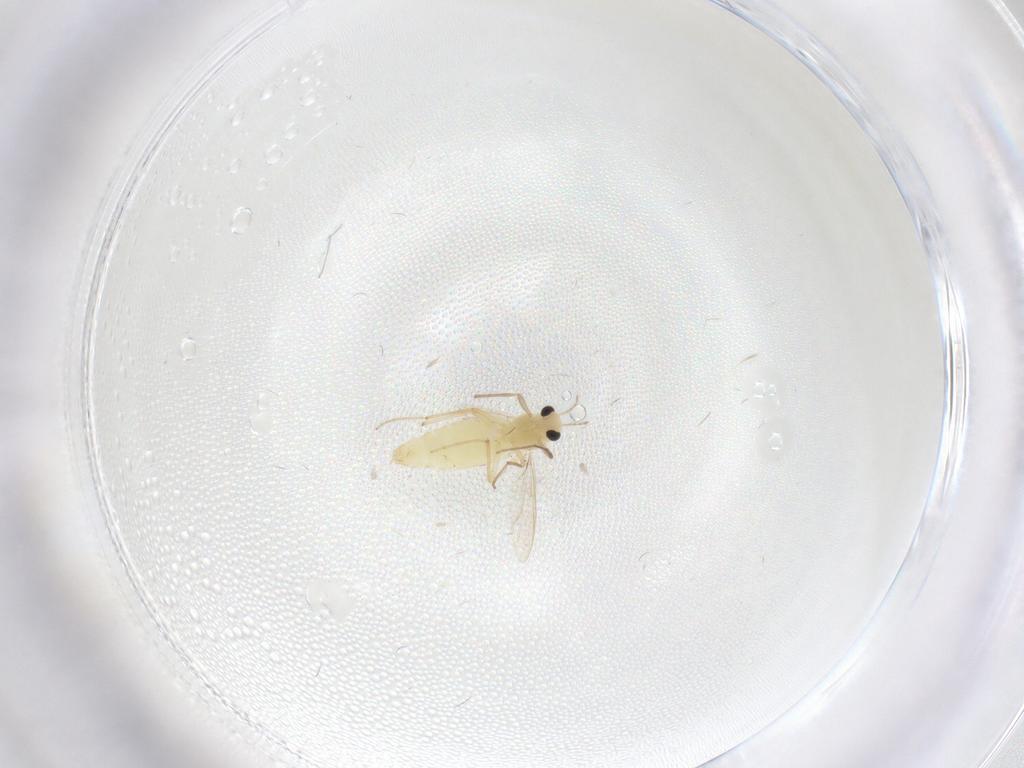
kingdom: Animalia
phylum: Arthropoda
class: Insecta
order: Diptera
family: Chironomidae
